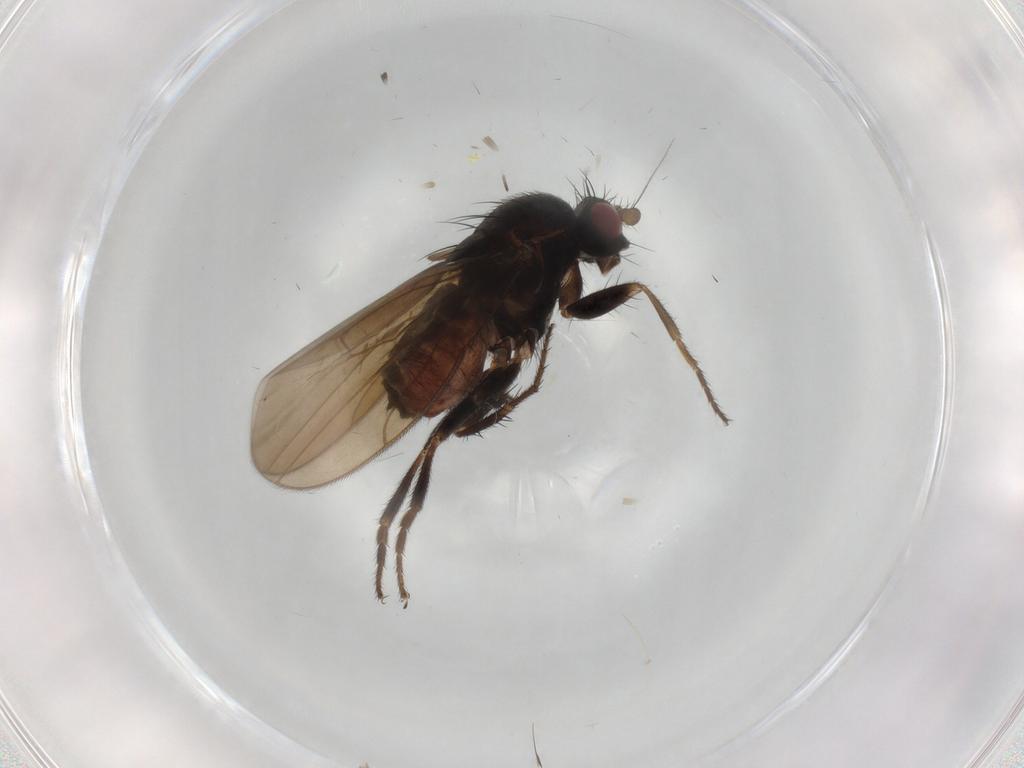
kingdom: Animalia
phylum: Arthropoda
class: Insecta
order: Diptera
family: Sphaeroceridae
